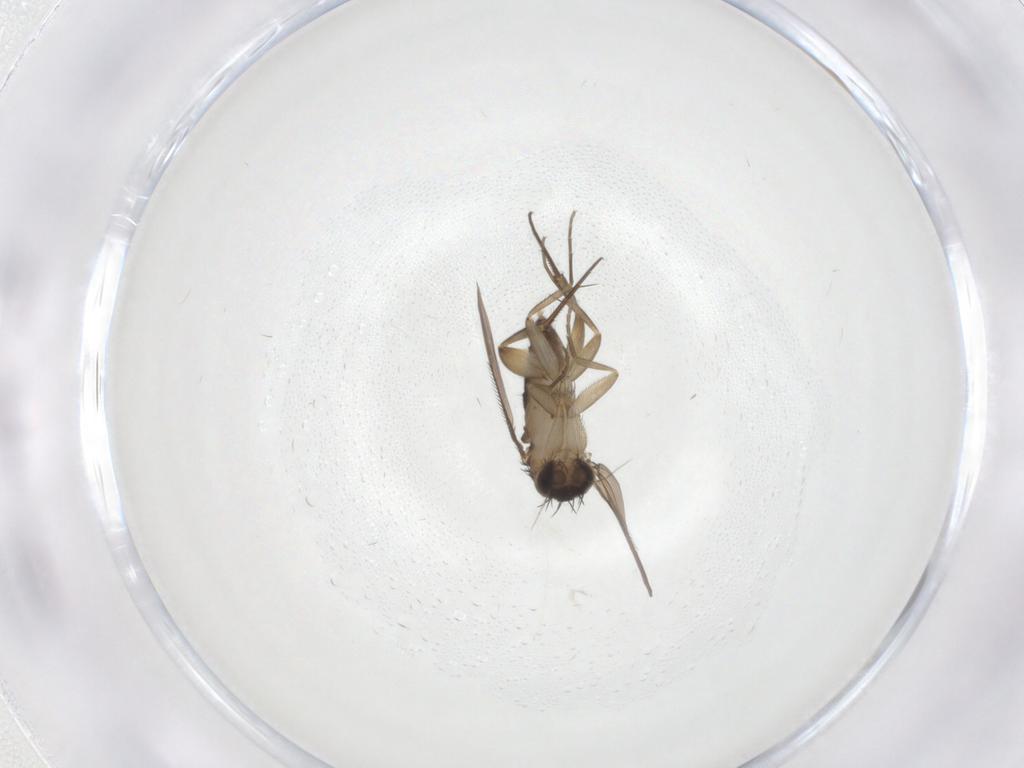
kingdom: Animalia
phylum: Arthropoda
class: Insecta
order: Diptera
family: Phoridae
